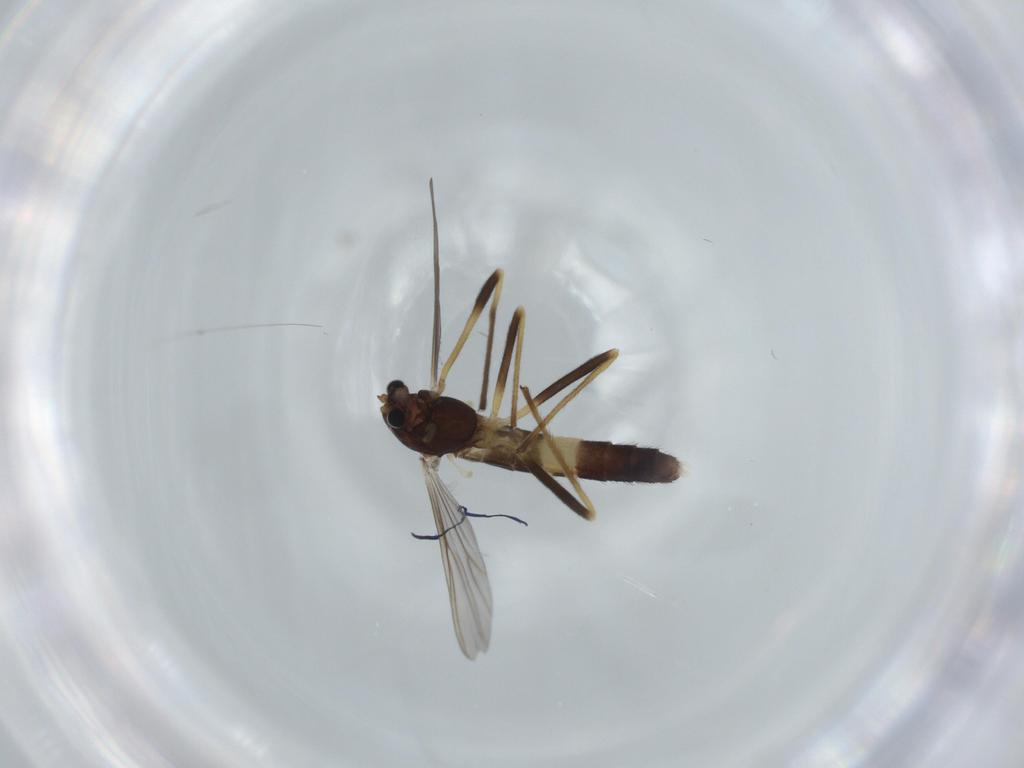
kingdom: Animalia
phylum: Arthropoda
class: Insecta
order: Diptera
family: Chironomidae
